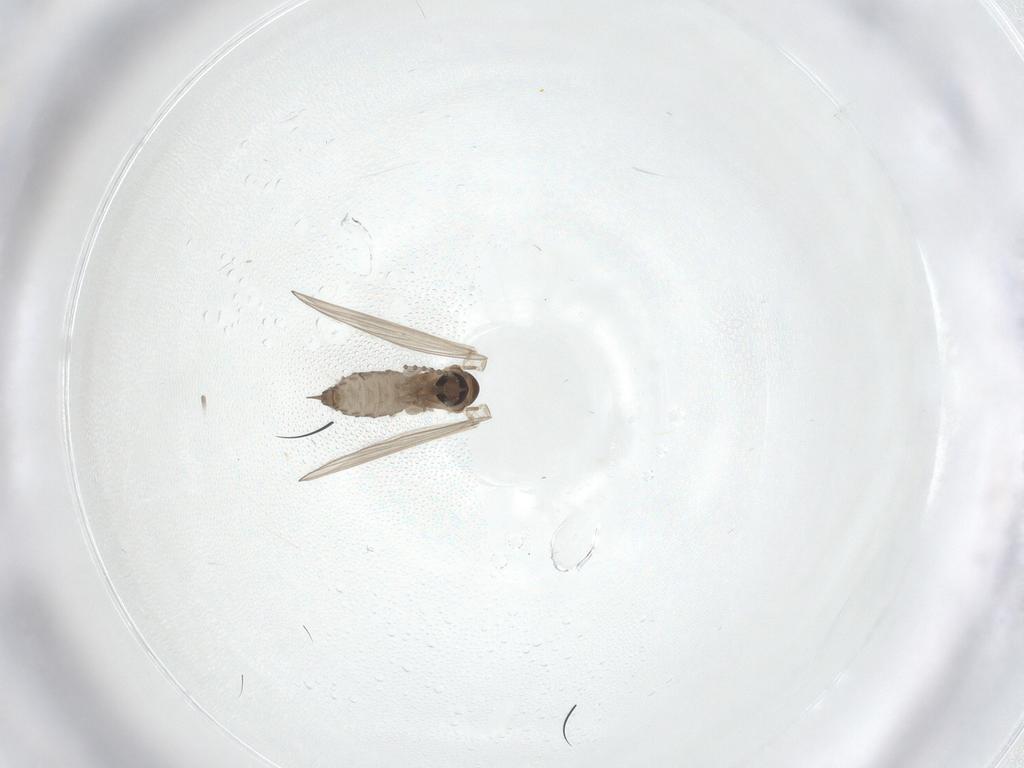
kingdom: Animalia
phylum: Arthropoda
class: Insecta
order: Diptera
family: Psychodidae
